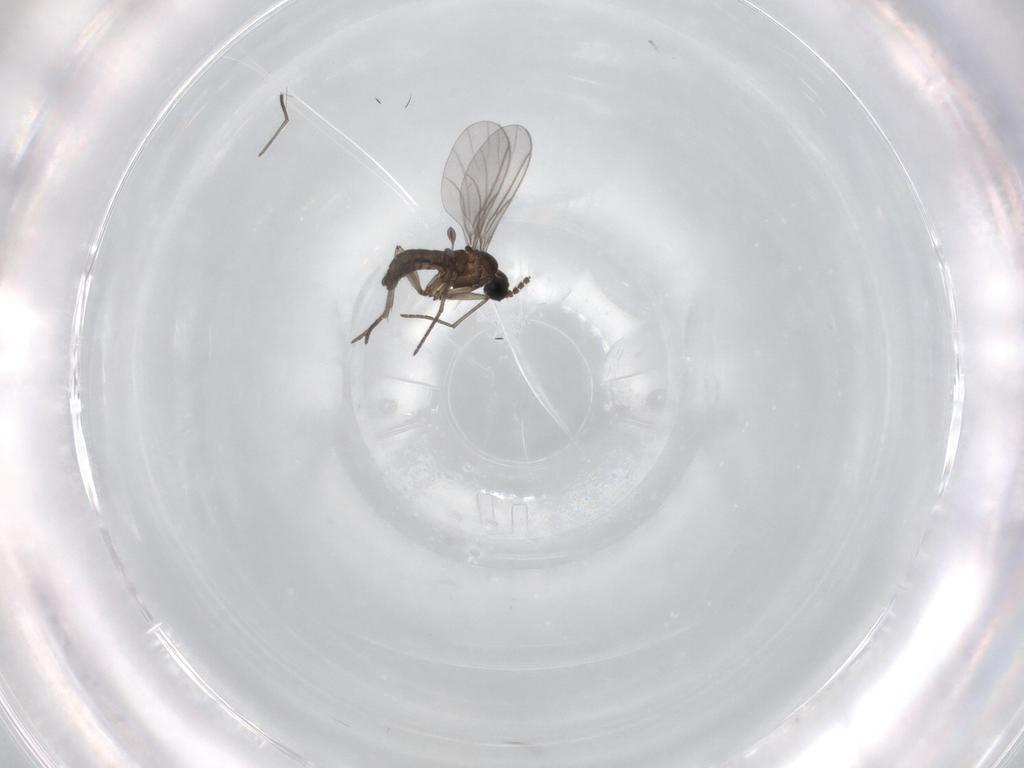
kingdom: Animalia
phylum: Arthropoda
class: Insecta
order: Diptera
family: Sciaridae
